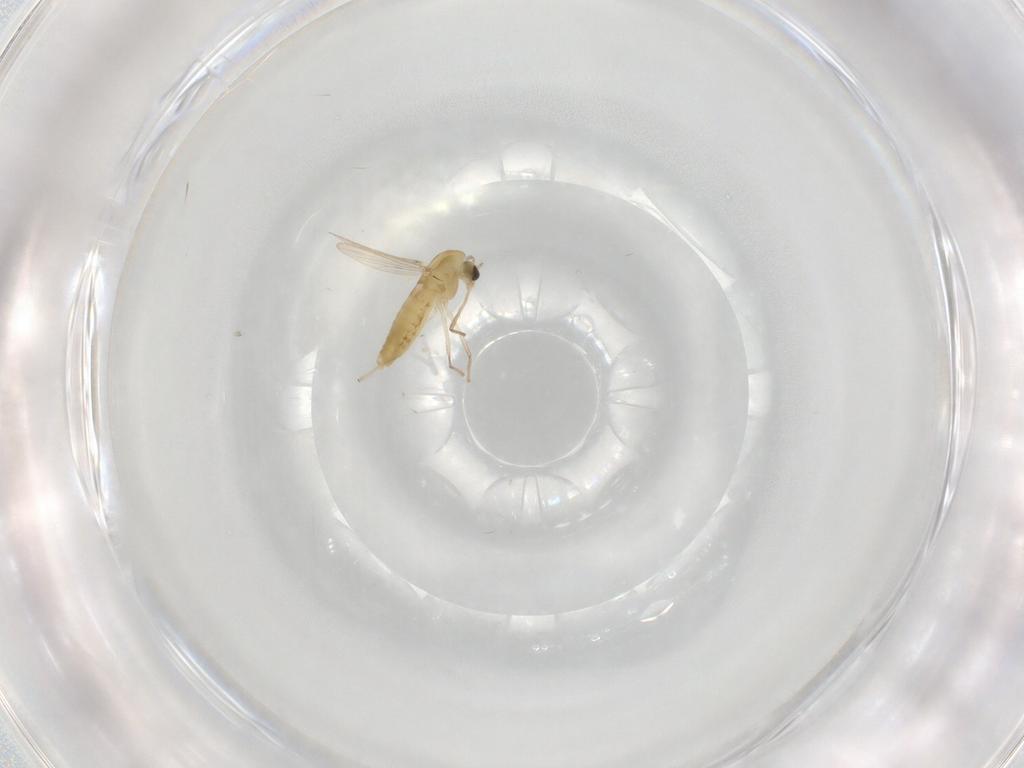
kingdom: Animalia
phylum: Arthropoda
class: Insecta
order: Diptera
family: Chironomidae
